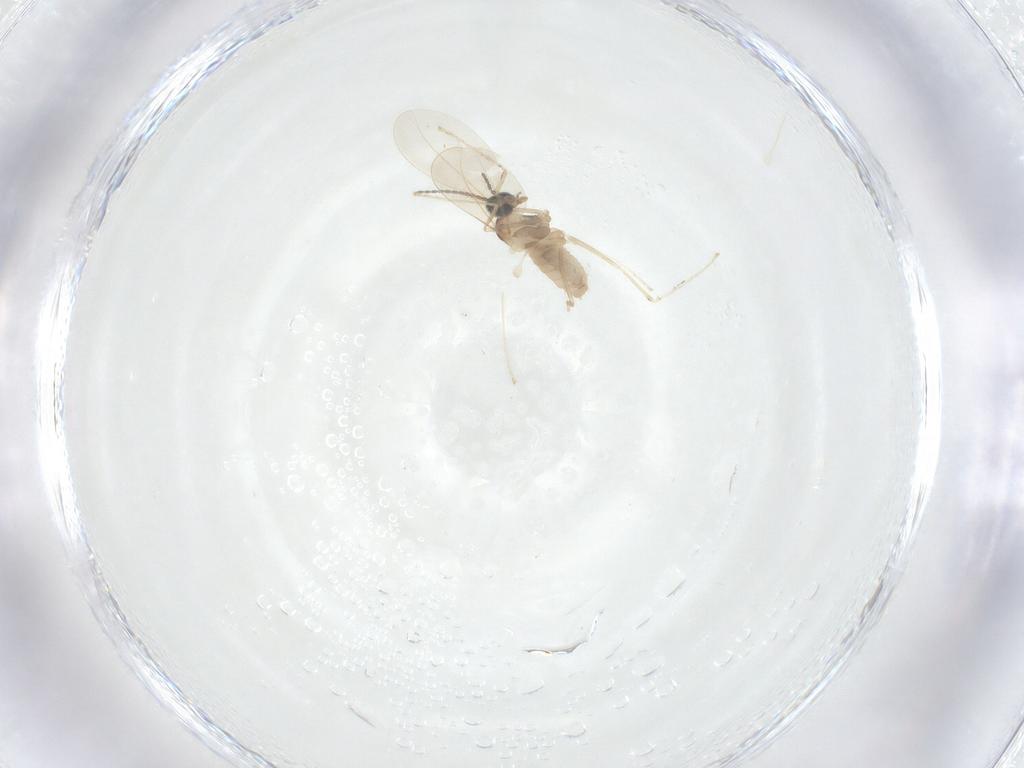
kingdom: Animalia
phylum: Arthropoda
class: Insecta
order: Diptera
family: Cecidomyiidae
